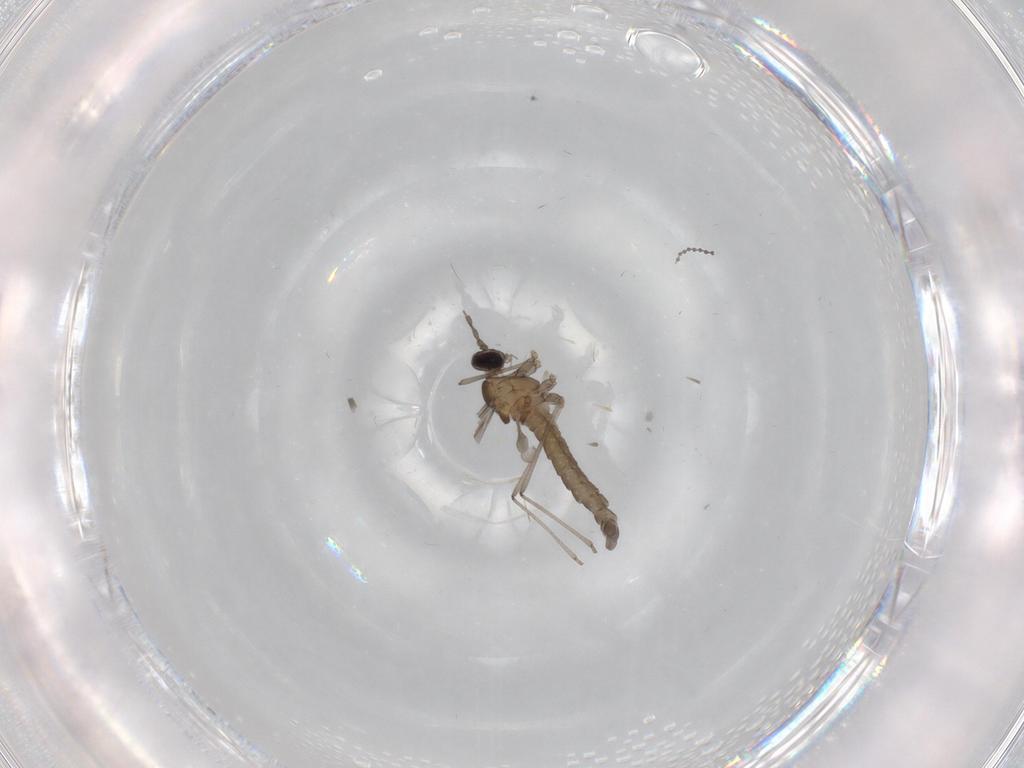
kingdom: Animalia
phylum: Arthropoda
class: Insecta
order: Diptera
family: Cecidomyiidae
